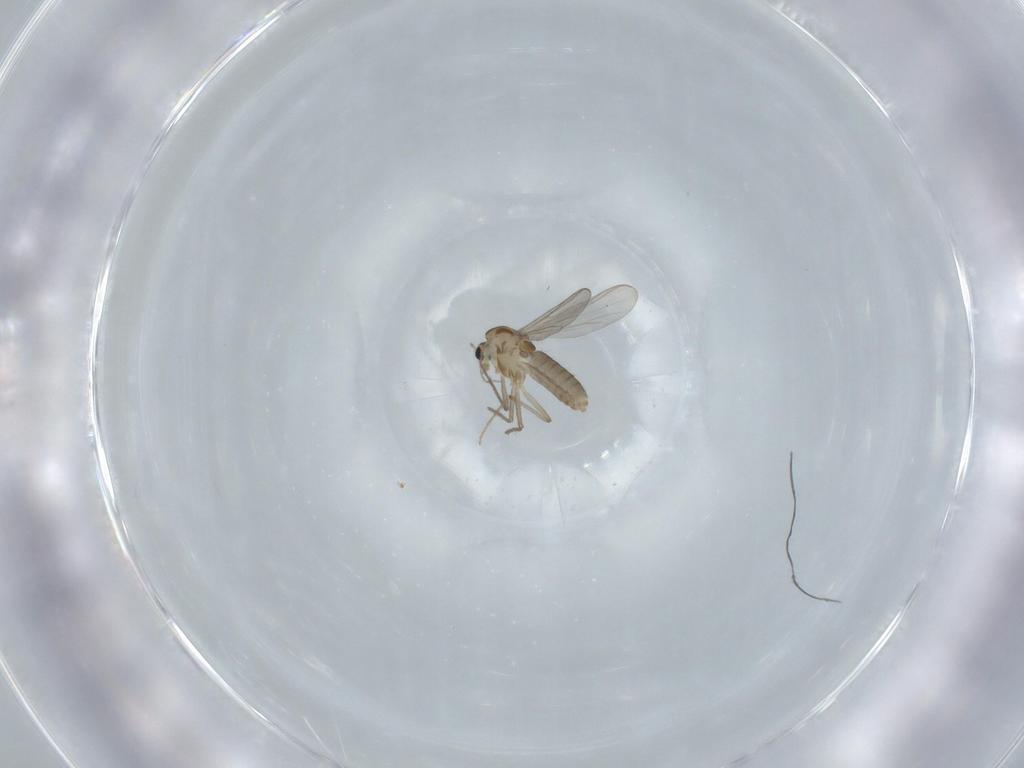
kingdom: Animalia
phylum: Arthropoda
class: Insecta
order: Diptera
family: Chironomidae
